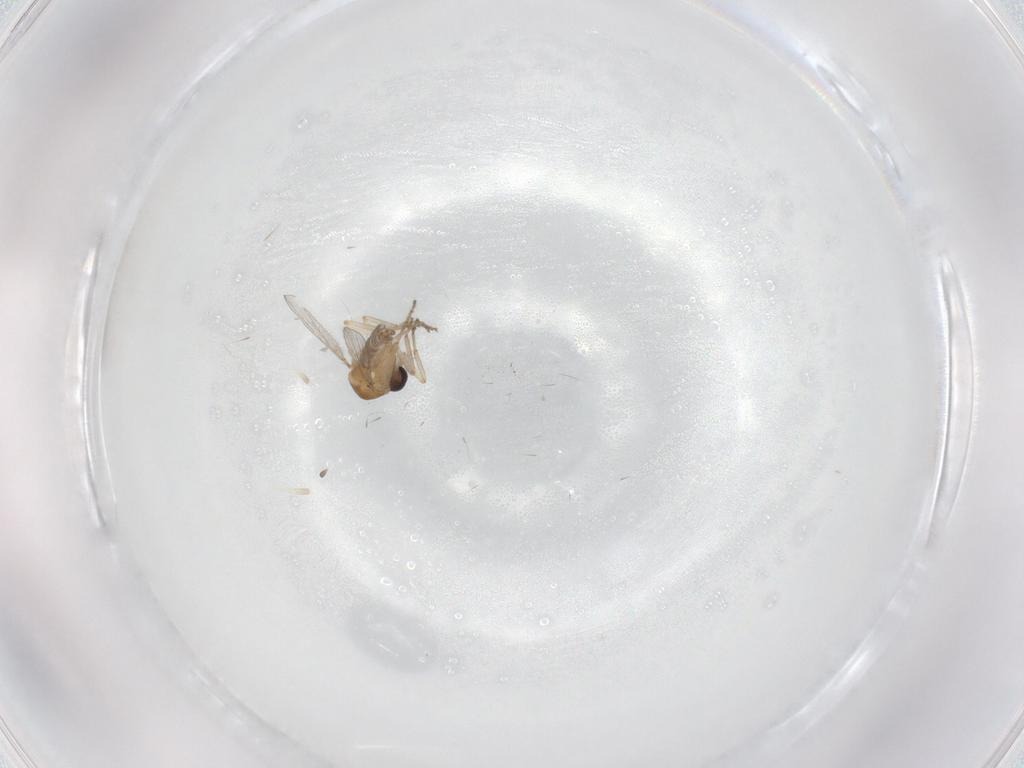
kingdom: Animalia
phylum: Arthropoda
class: Insecta
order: Diptera
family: Ceratopogonidae
